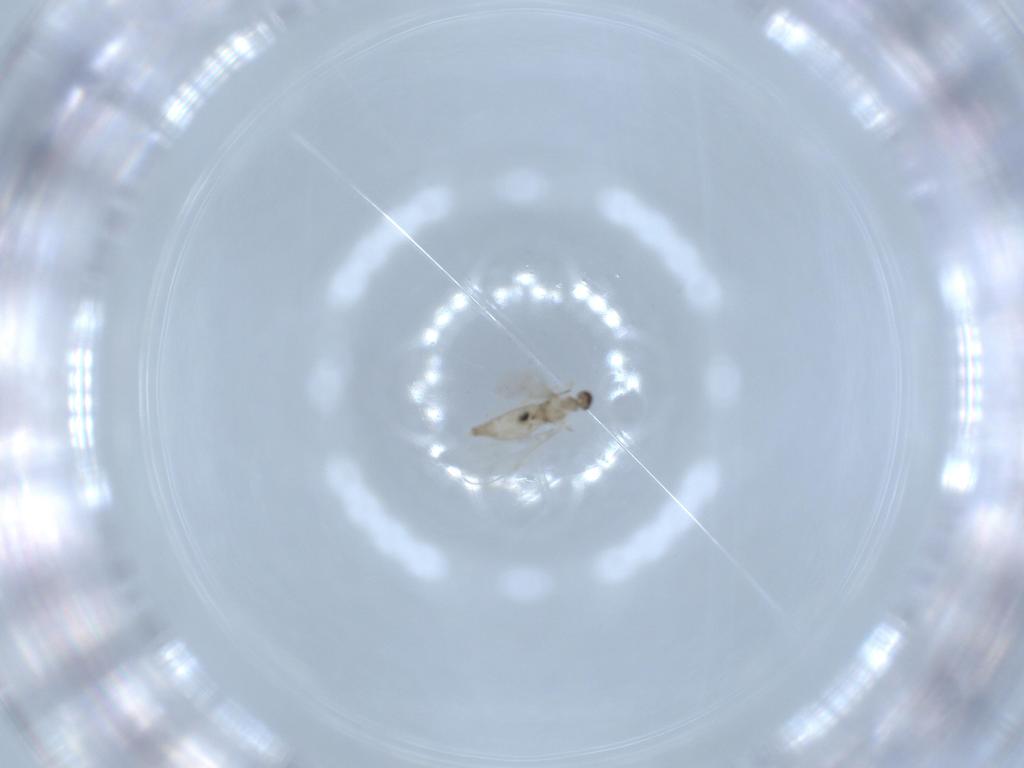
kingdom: Animalia
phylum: Arthropoda
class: Insecta
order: Diptera
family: Cecidomyiidae
